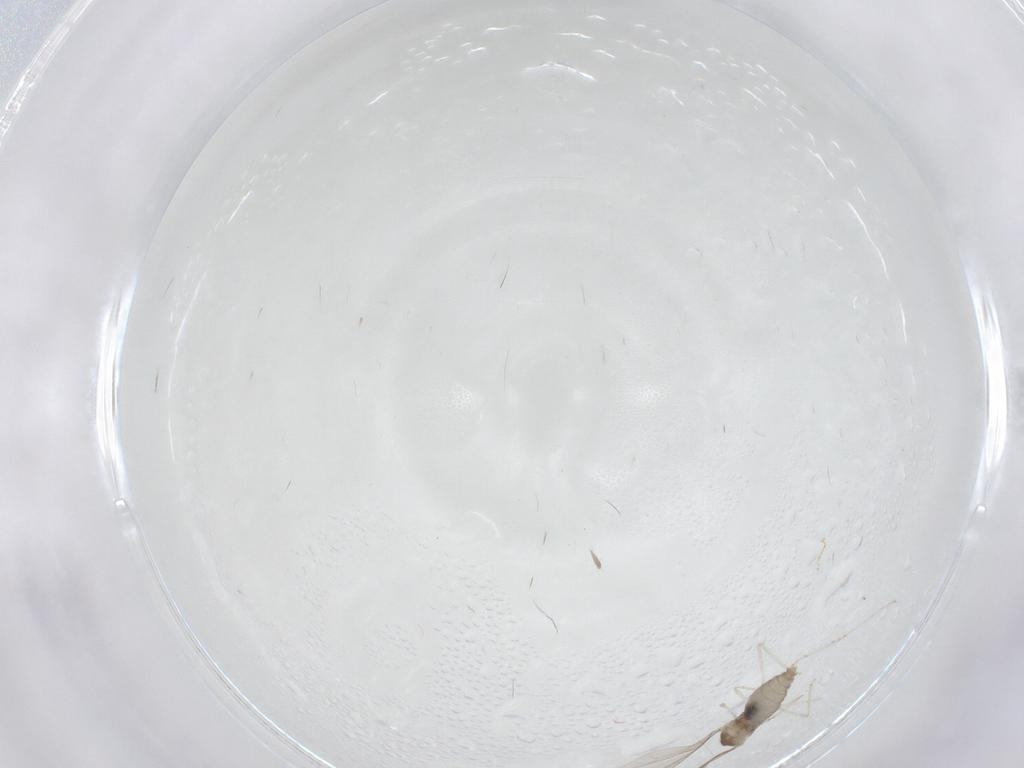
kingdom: Animalia
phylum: Arthropoda
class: Insecta
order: Diptera
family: Chironomidae
